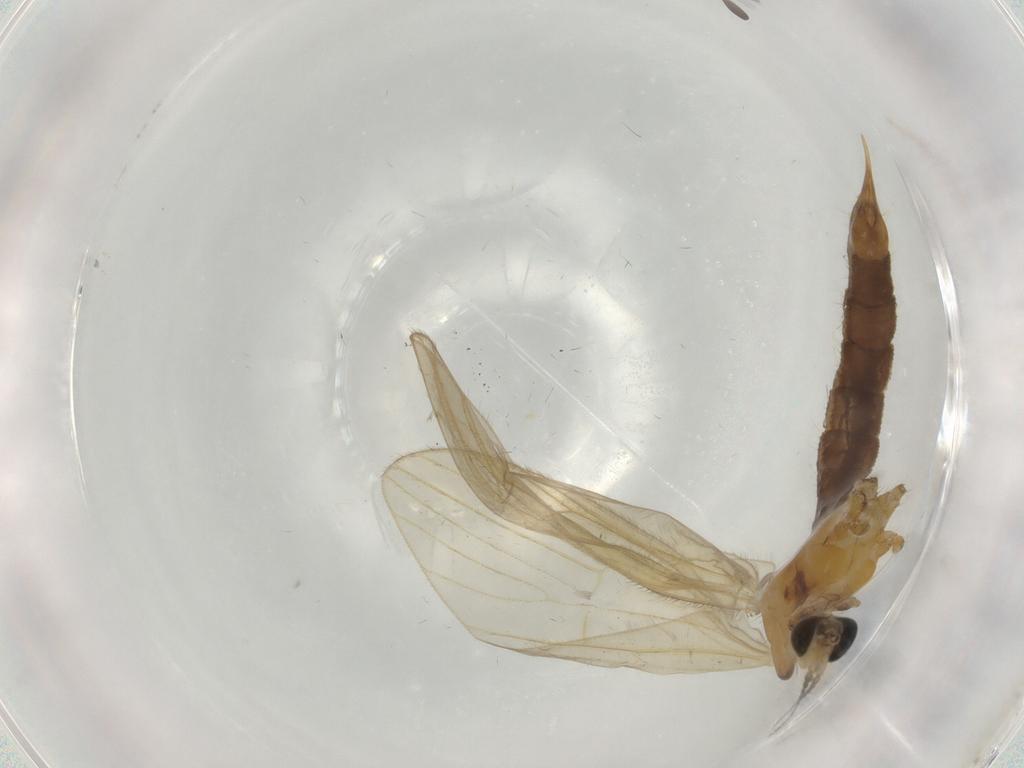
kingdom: Animalia
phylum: Arthropoda
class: Insecta
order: Diptera
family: Limoniidae
